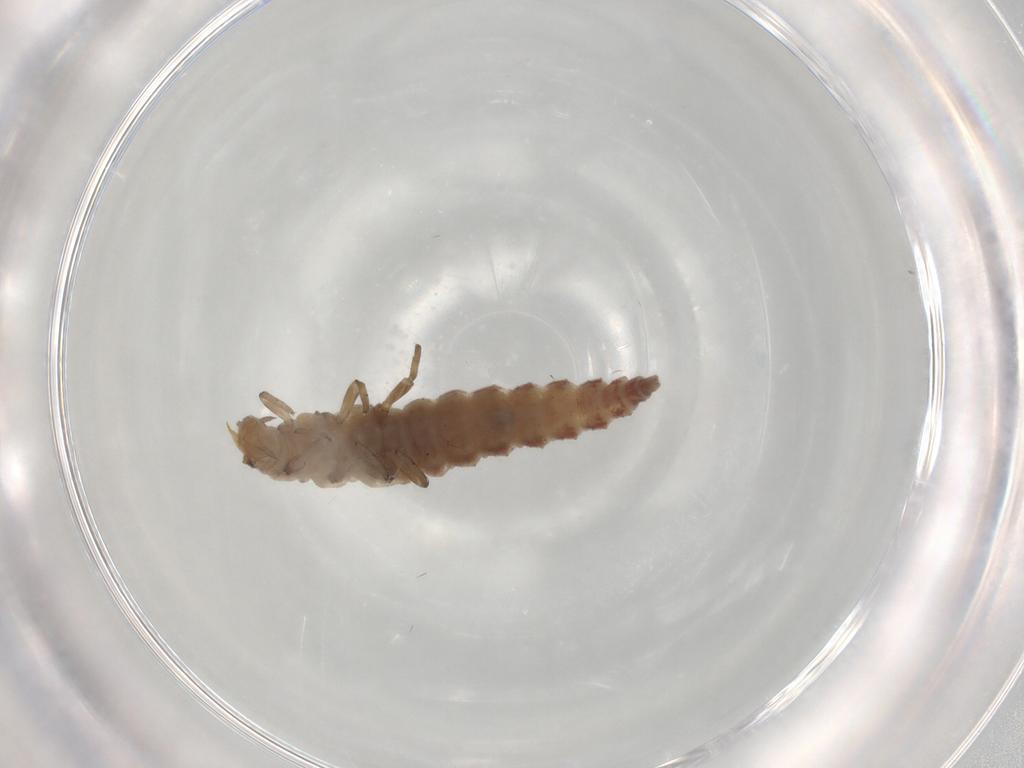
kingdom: Animalia
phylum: Arthropoda
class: Insecta
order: Neuroptera
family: Hemerobiidae
